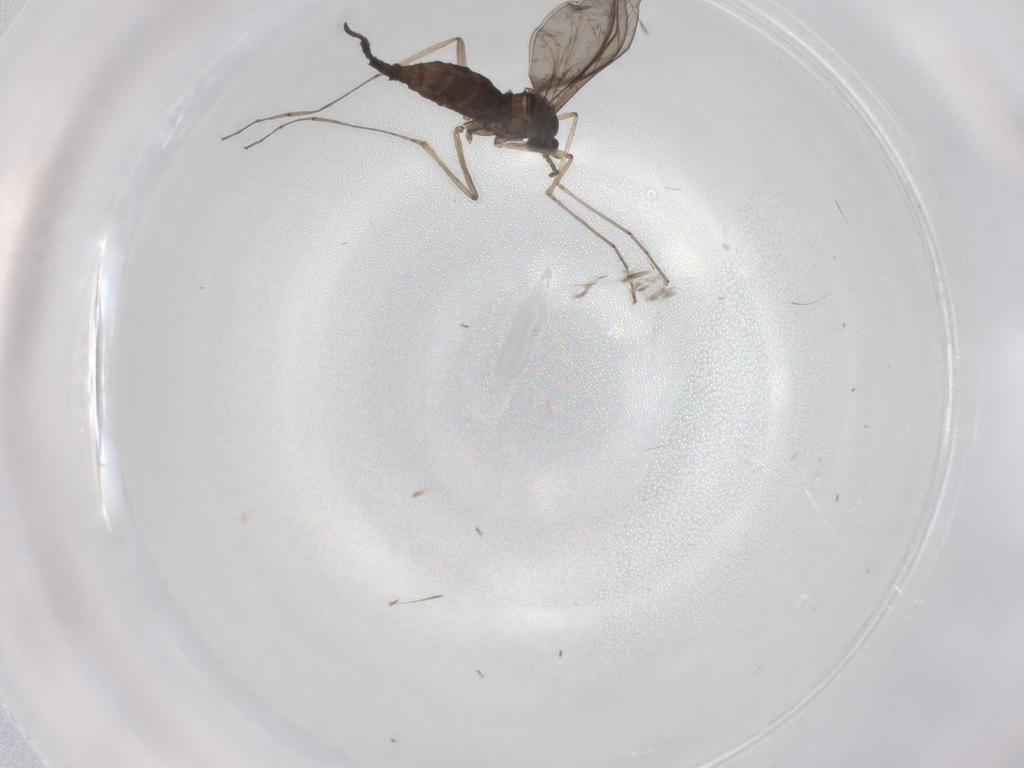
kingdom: Animalia
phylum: Arthropoda
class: Insecta
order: Diptera
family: Cecidomyiidae
